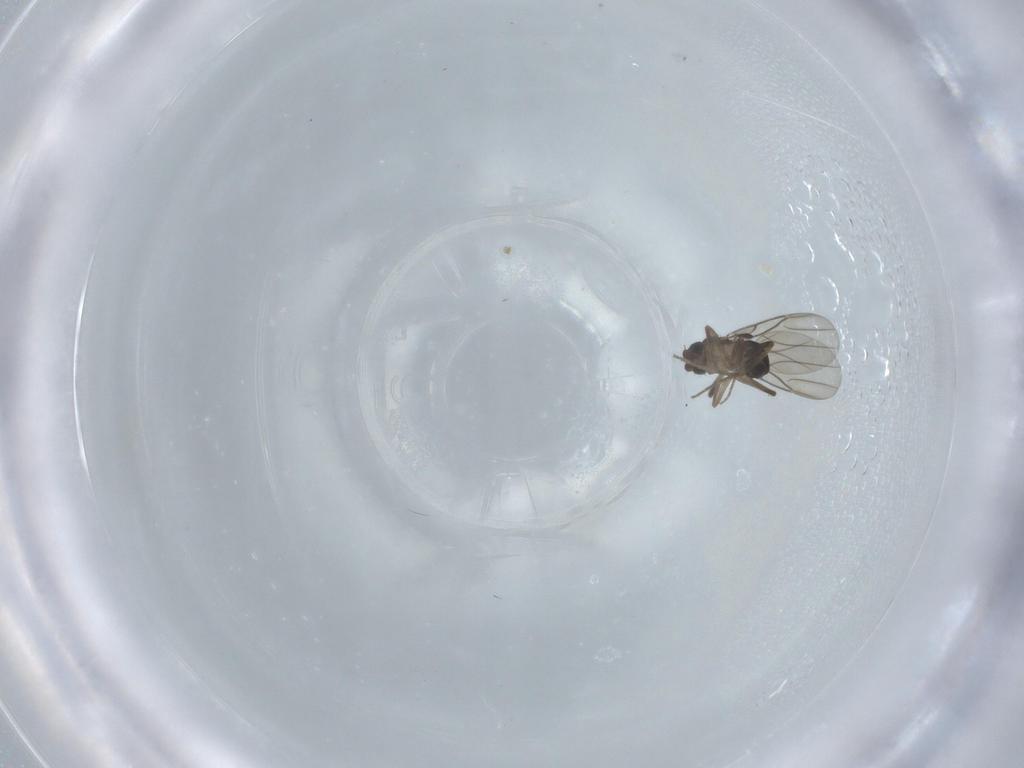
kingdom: Animalia
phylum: Arthropoda
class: Insecta
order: Diptera
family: Phoridae
